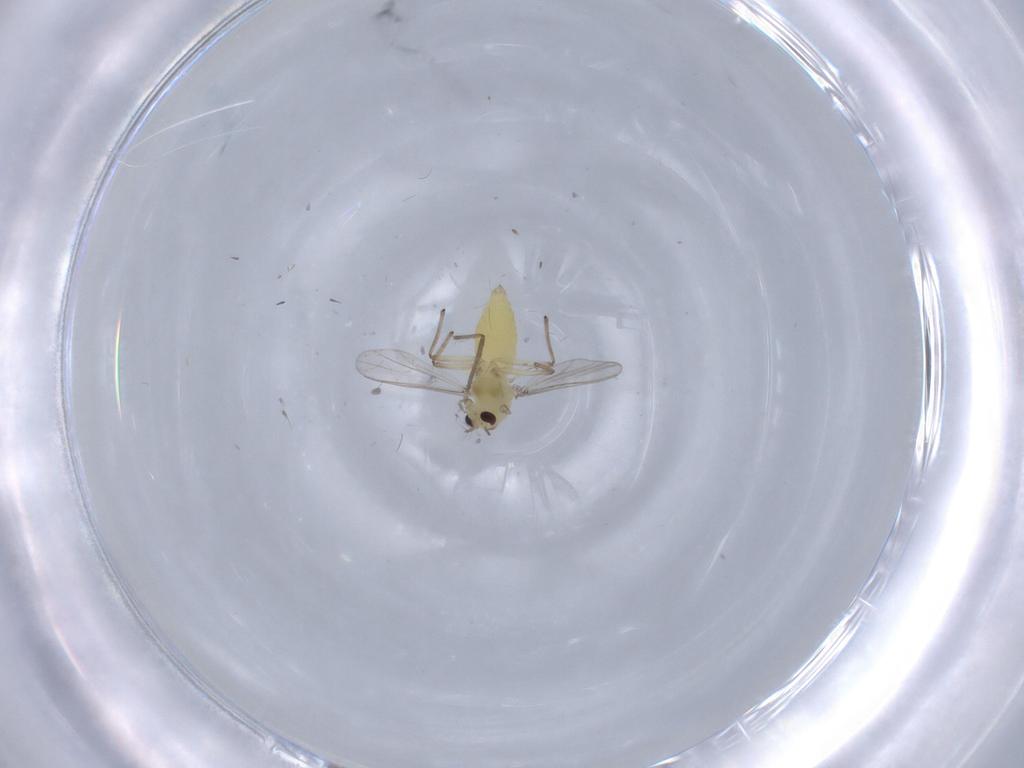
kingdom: Animalia
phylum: Arthropoda
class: Insecta
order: Diptera
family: Chironomidae
